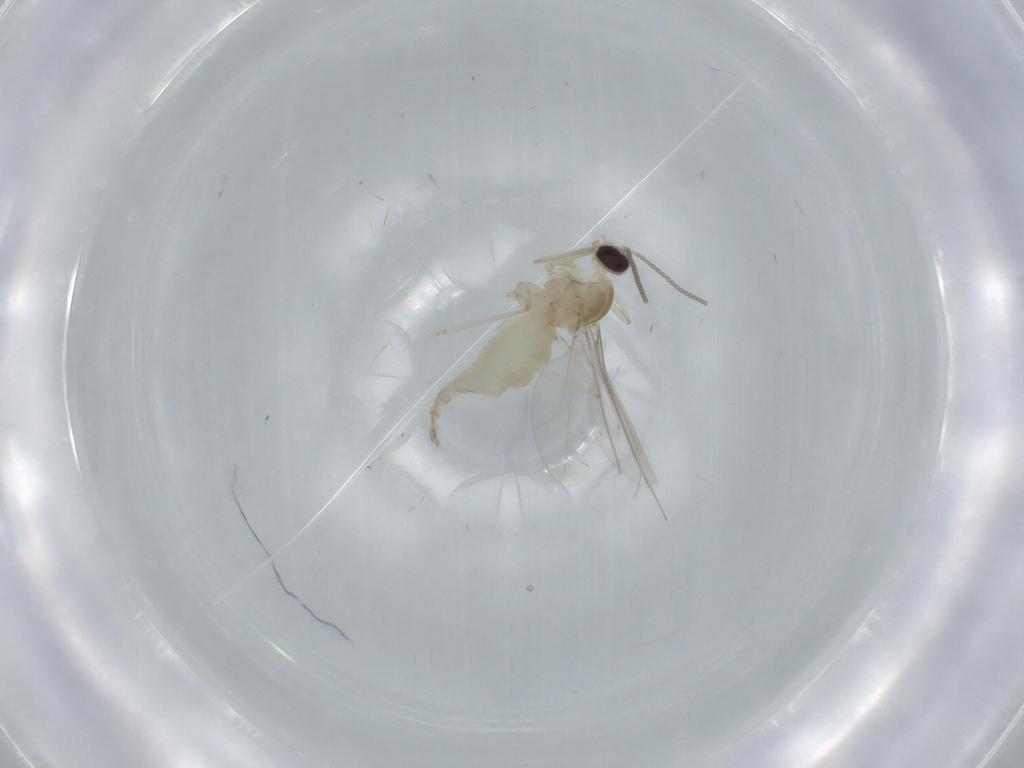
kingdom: Animalia
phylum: Arthropoda
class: Insecta
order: Diptera
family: Cecidomyiidae
